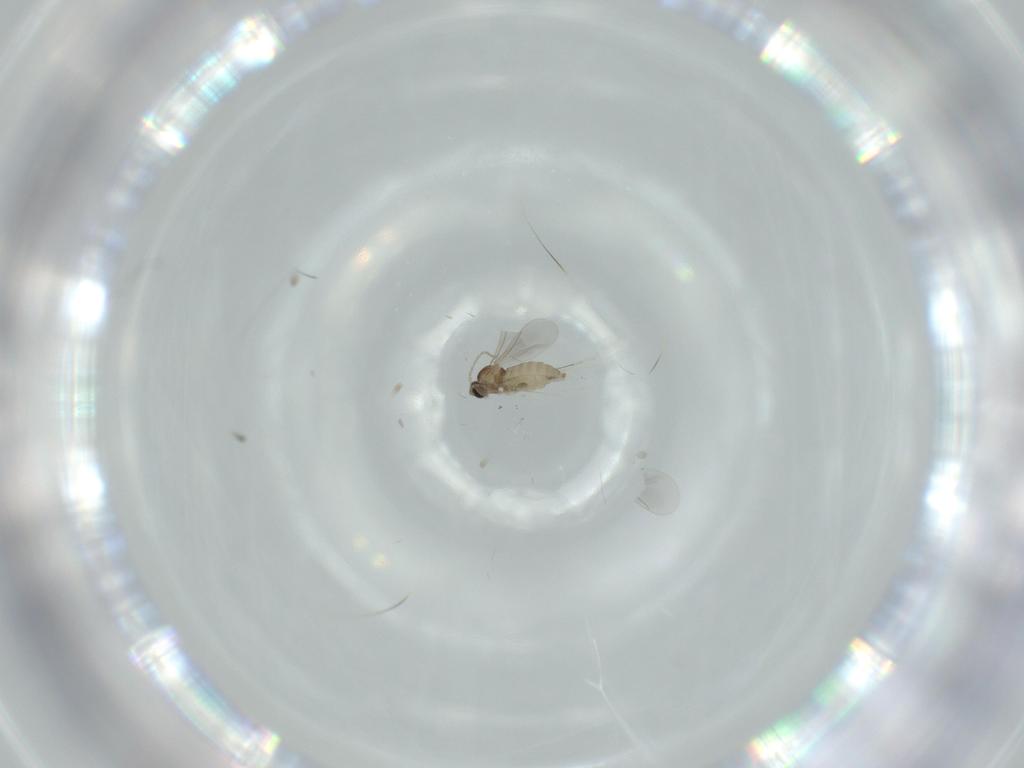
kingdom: Animalia
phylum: Arthropoda
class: Insecta
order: Diptera
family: Cecidomyiidae
